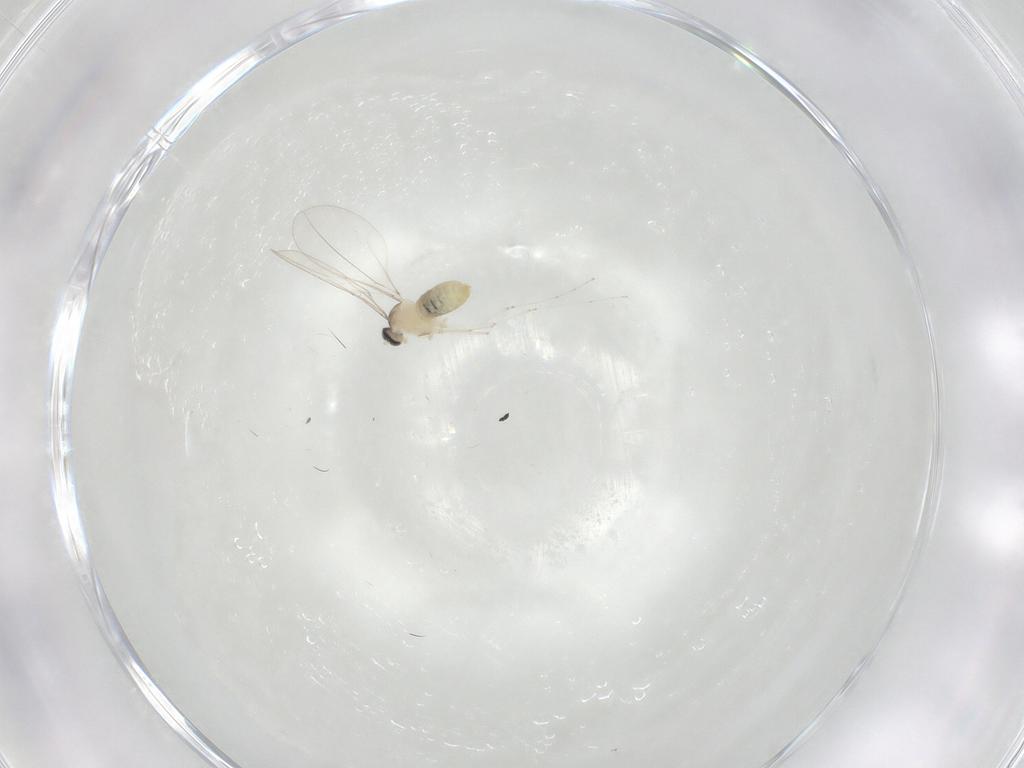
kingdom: Animalia
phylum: Arthropoda
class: Insecta
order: Diptera
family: Cecidomyiidae
